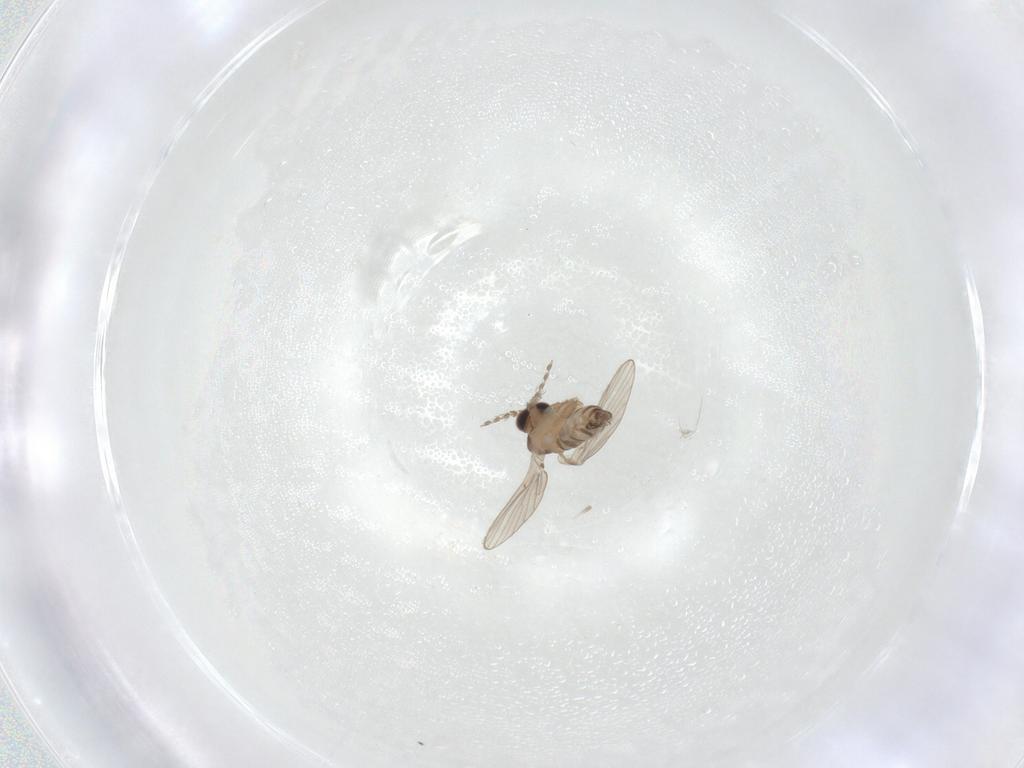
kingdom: Animalia
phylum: Arthropoda
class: Insecta
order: Diptera
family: Psychodidae
